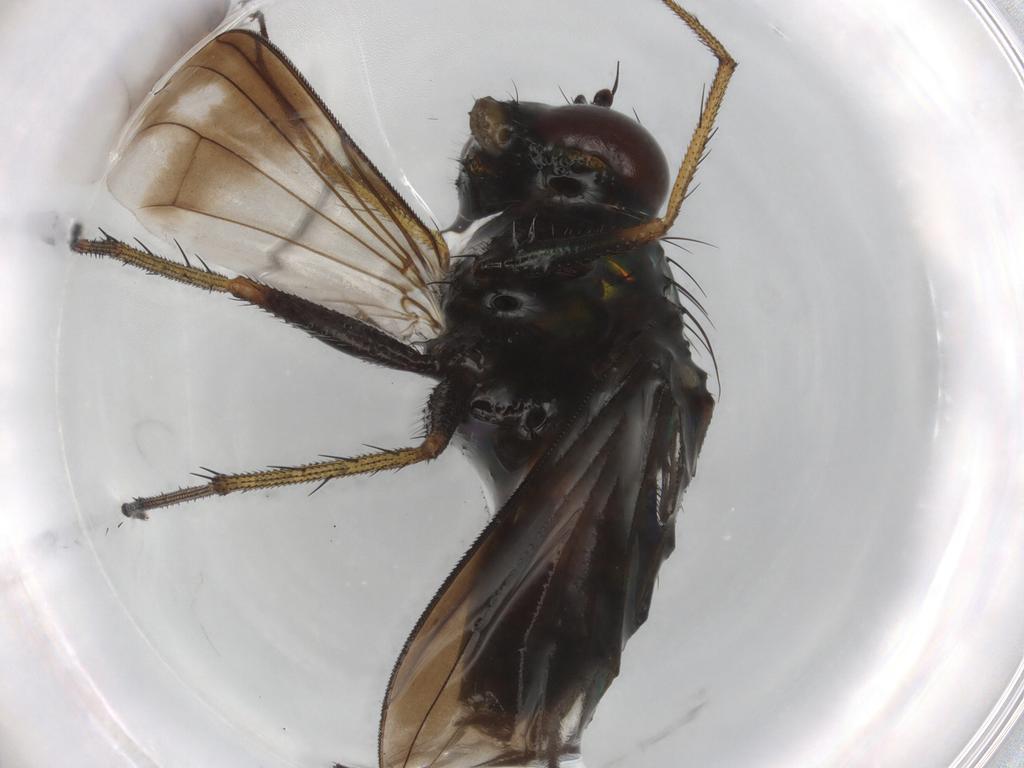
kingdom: Animalia
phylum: Arthropoda
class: Insecta
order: Diptera
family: Dolichopodidae
